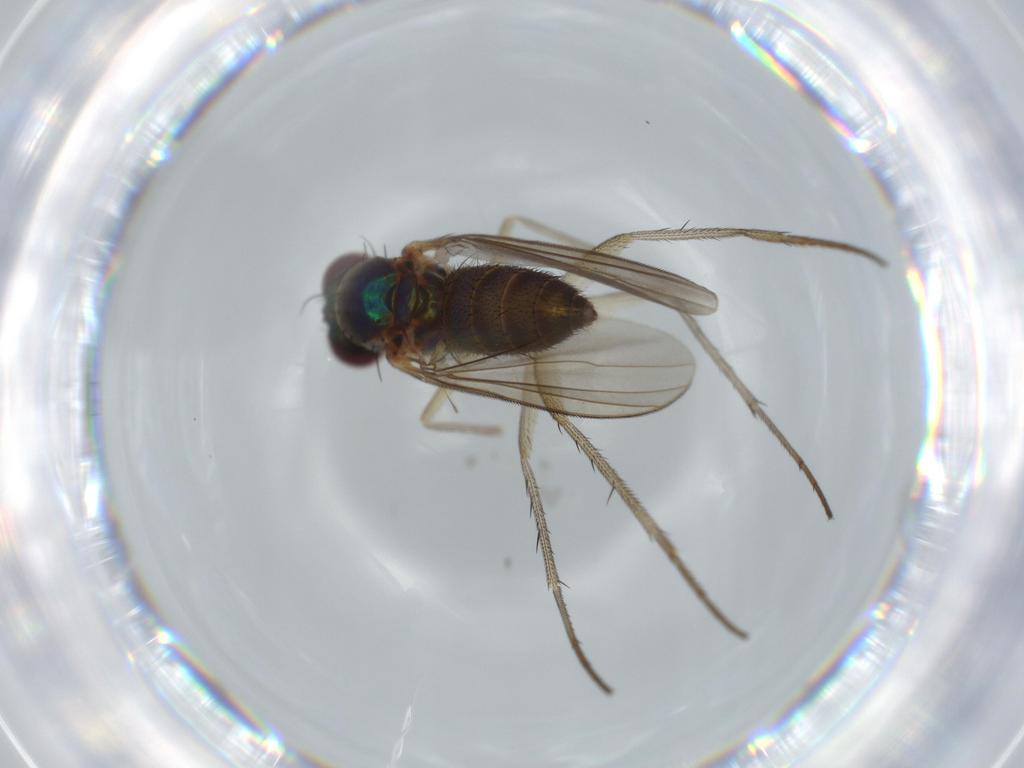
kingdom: Animalia
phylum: Arthropoda
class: Insecta
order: Diptera
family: Dolichopodidae
